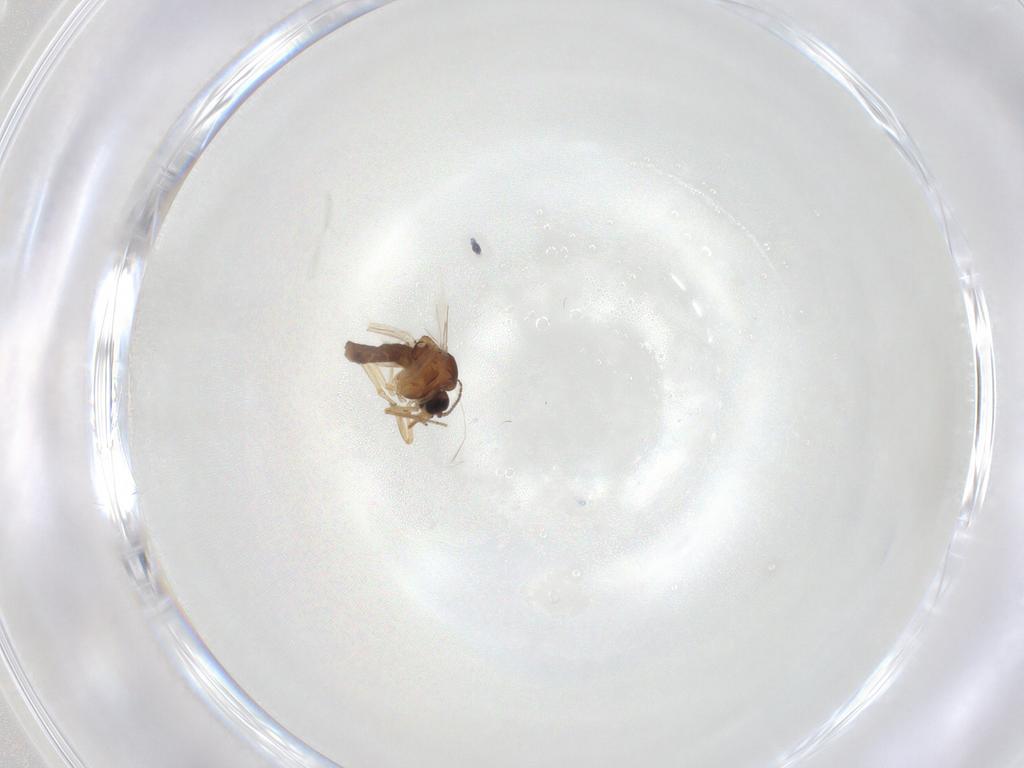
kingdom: Animalia
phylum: Arthropoda
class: Insecta
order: Diptera
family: Ceratopogonidae
